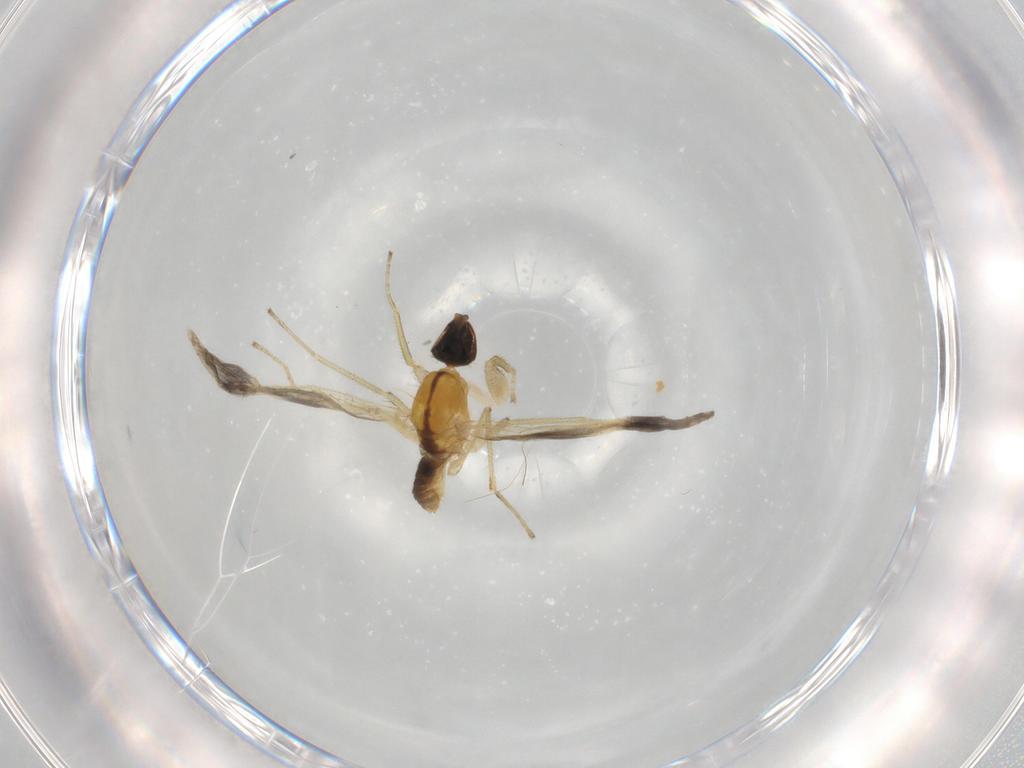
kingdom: Animalia
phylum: Arthropoda
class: Insecta
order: Diptera
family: Empididae
